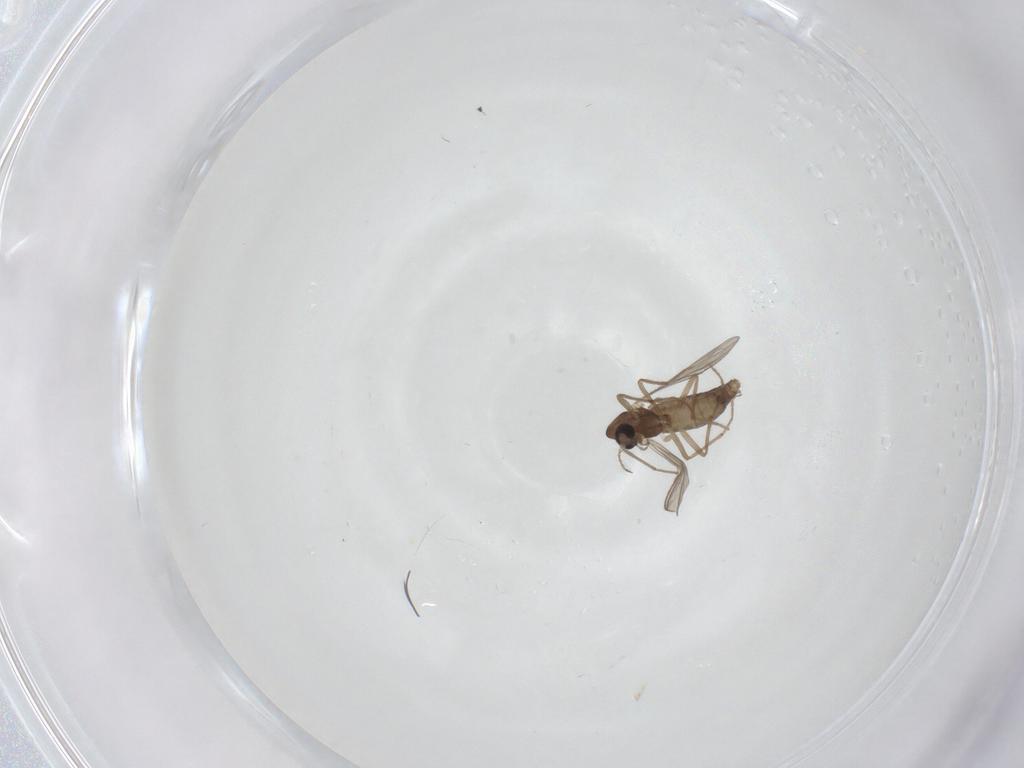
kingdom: Animalia
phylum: Arthropoda
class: Insecta
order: Diptera
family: Chironomidae
